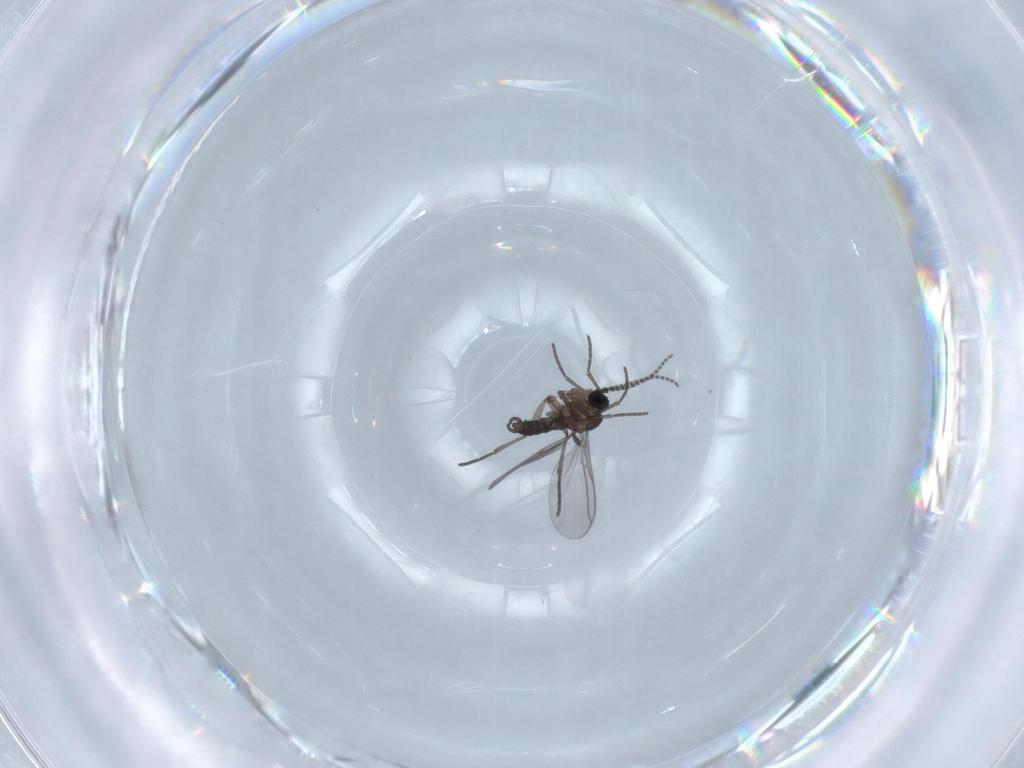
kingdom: Animalia
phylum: Arthropoda
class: Insecta
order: Diptera
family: Dolichopodidae
